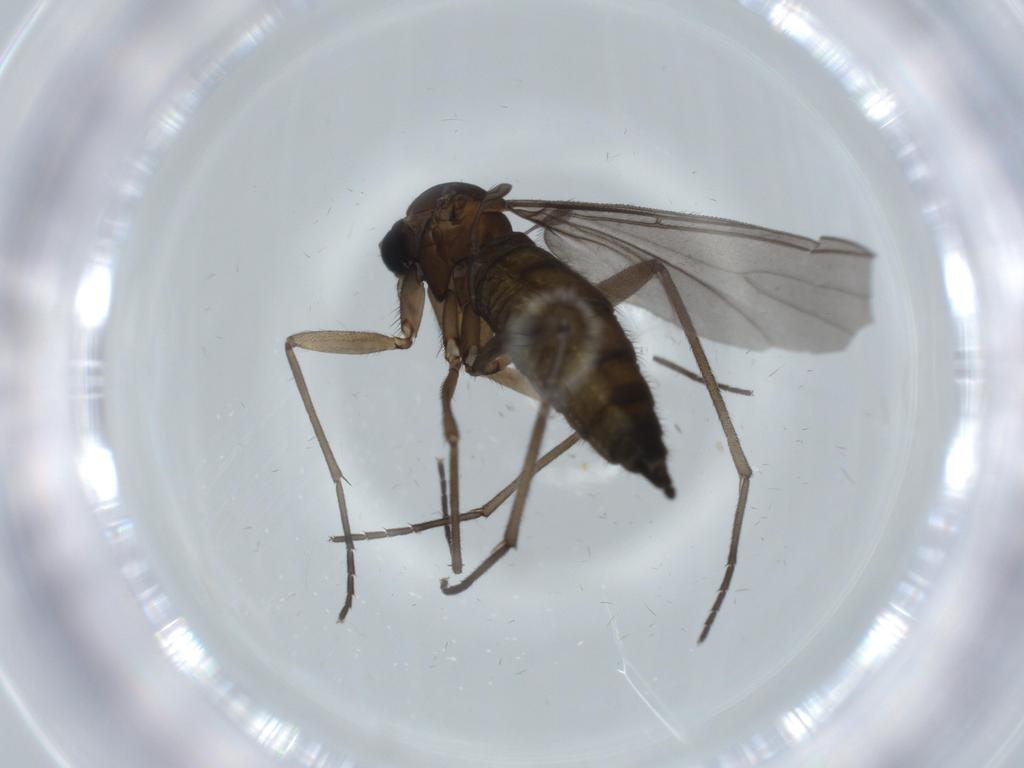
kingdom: Animalia
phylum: Arthropoda
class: Insecta
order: Diptera
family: Sciaridae
